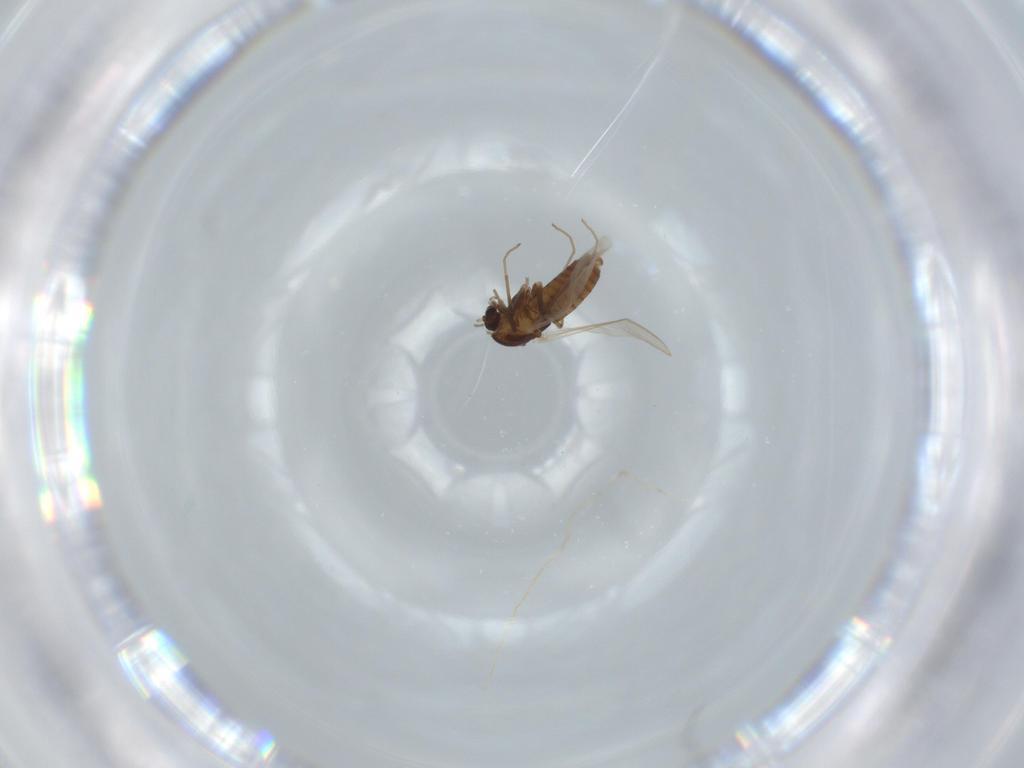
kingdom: Animalia
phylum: Arthropoda
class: Insecta
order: Diptera
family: Chironomidae
